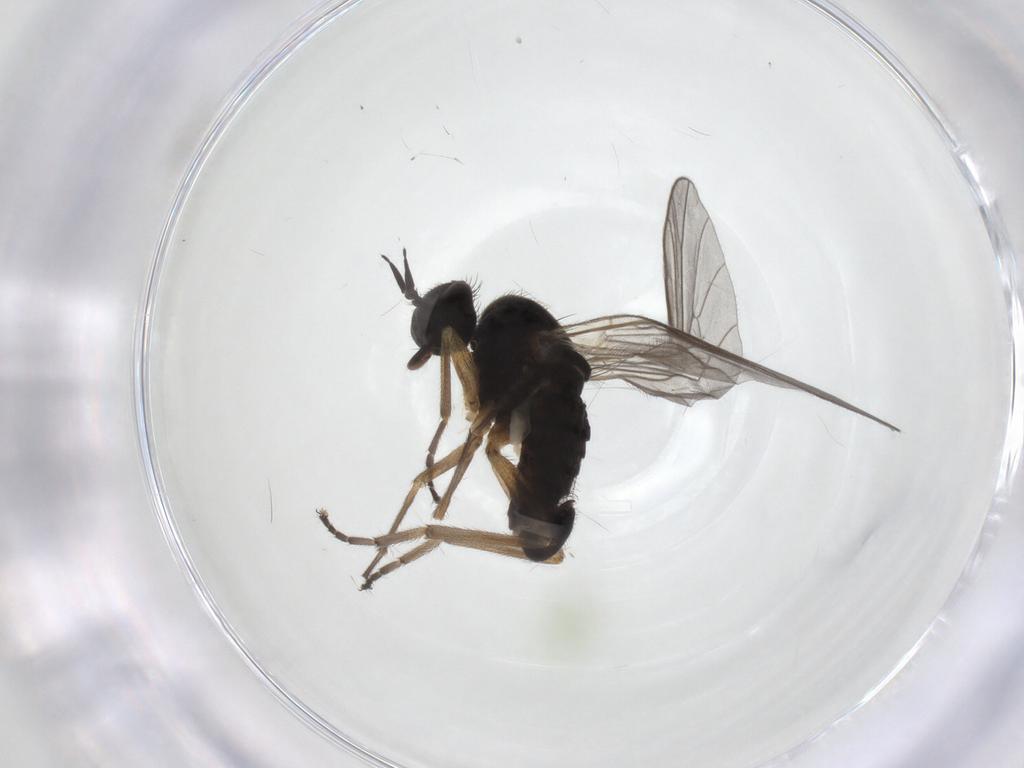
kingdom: Animalia
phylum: Arthropoda
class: Insecta
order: Diptera
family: Empididae
